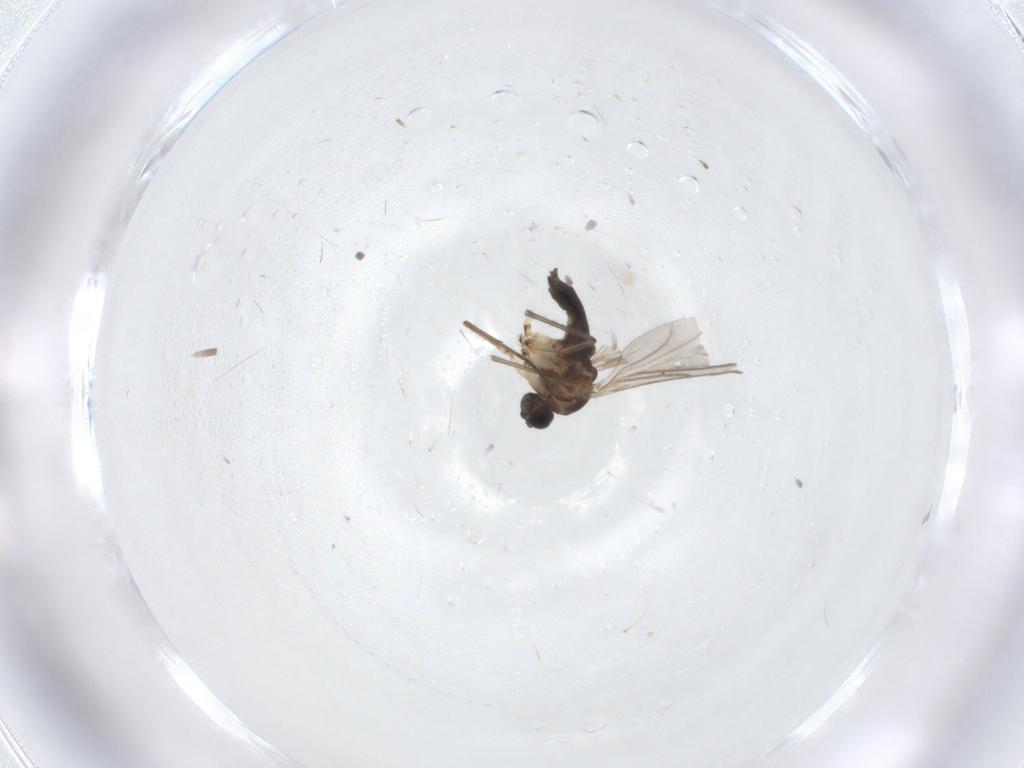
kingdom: Animalia
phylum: Arthropoda
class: Insecta
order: Diptera
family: Sciaridae
